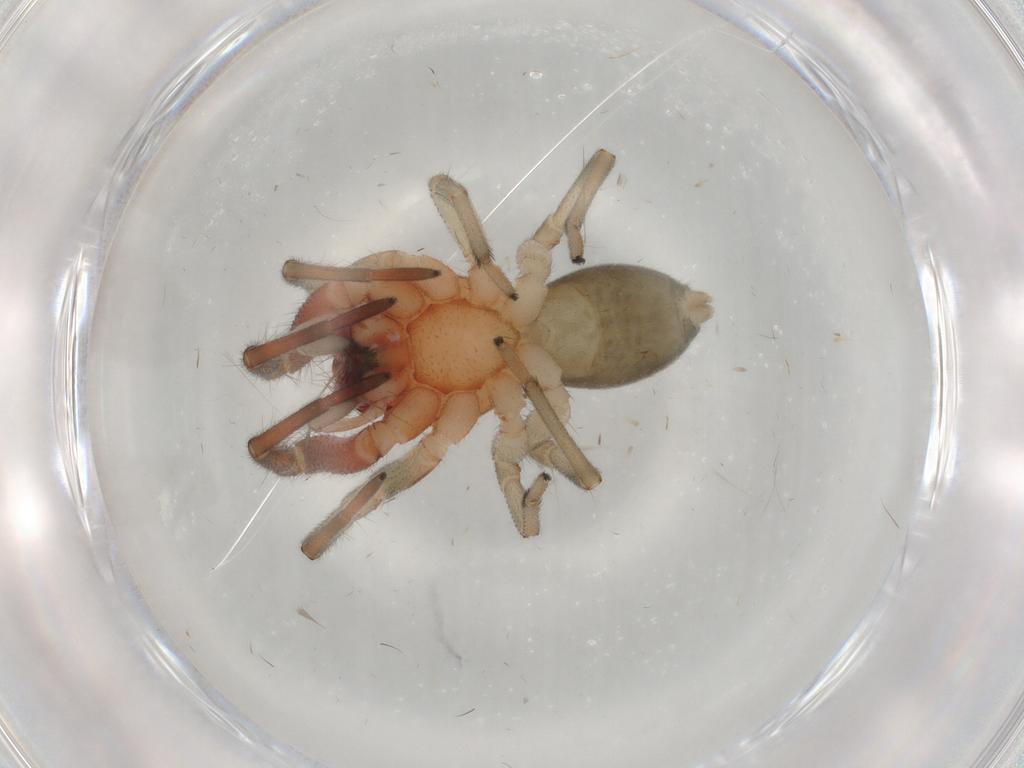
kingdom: Animalia
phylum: Arthropoda
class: Arachnida
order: Araneae
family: Trachelidae
